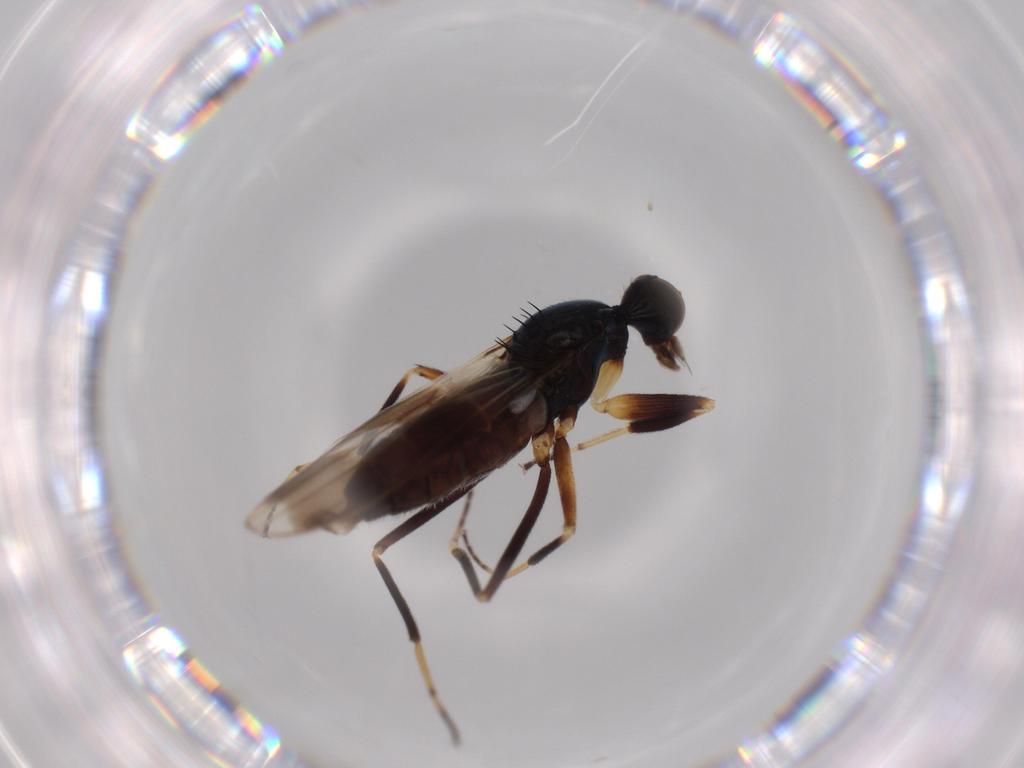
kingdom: Animalia
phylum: Arthropoda
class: Insecta
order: Diptera
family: Hybotidae
